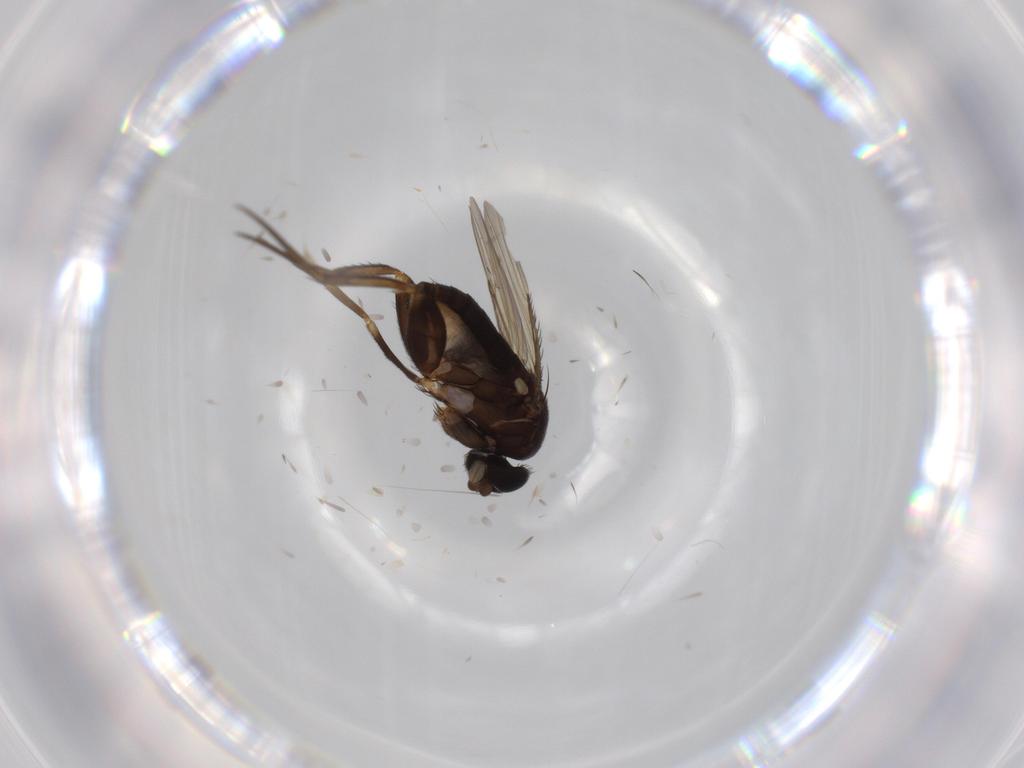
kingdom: Animalia
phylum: Arthropoda
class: Insecta
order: Diptera
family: Phoridae
